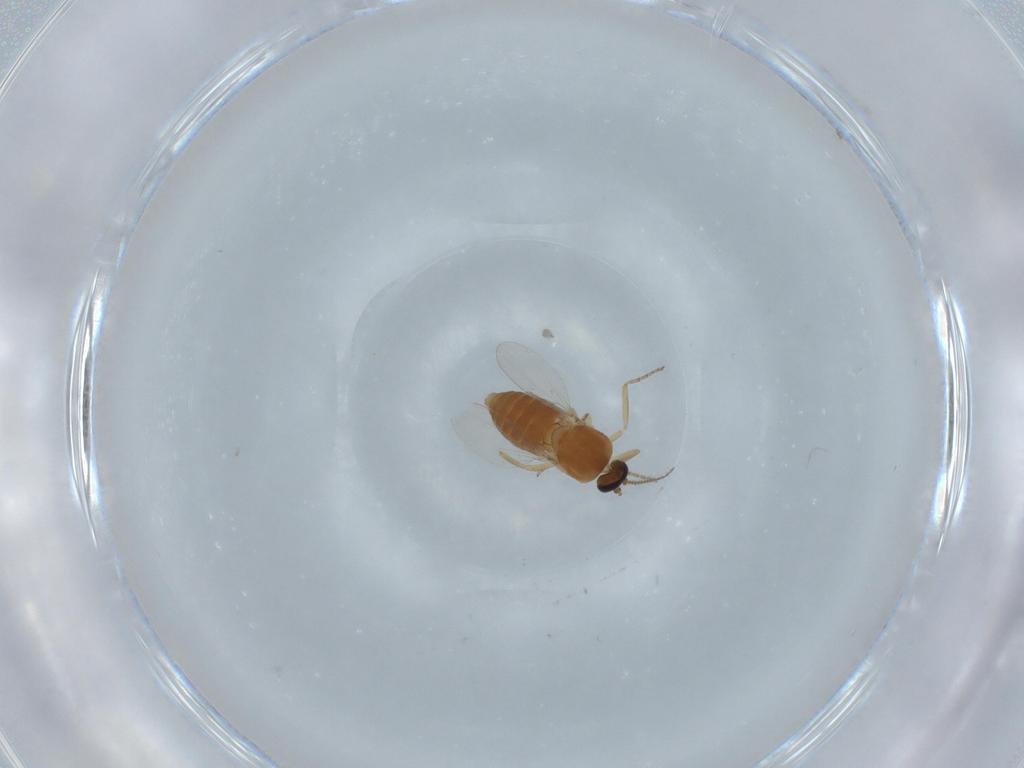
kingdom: Animalia
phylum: Arthropoda
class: Insecta
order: Diptera
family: Ceratopogonidae
